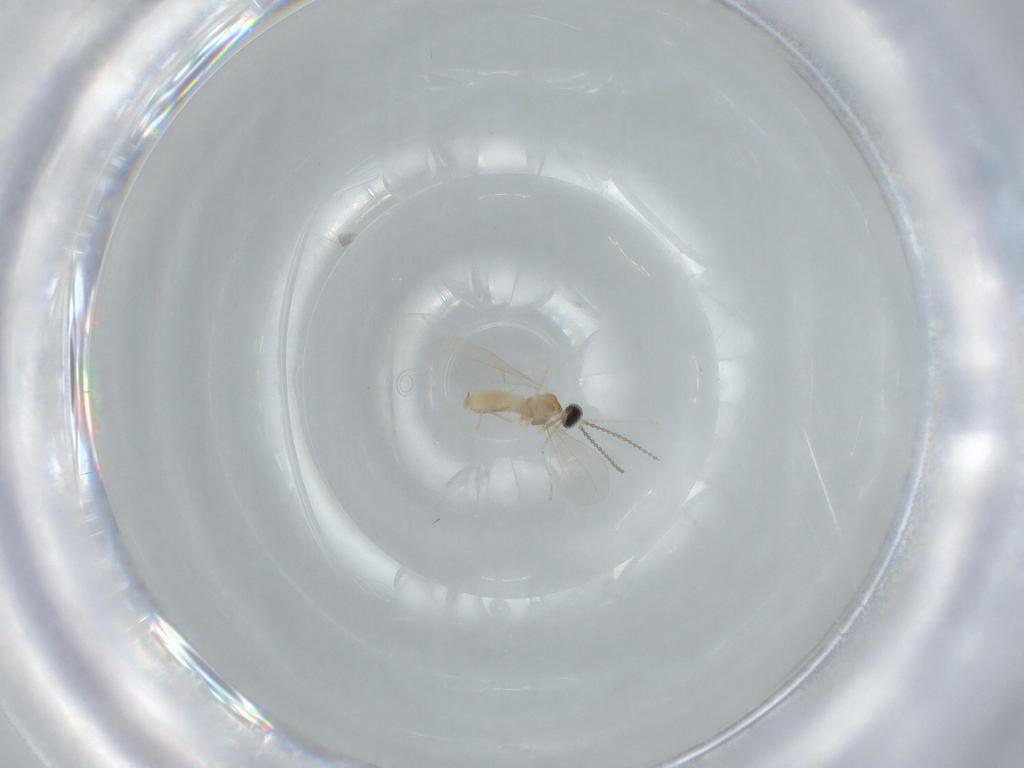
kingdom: Animalia
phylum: Arthropoda
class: Insecta
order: Diptera
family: Cecidomyiidae
